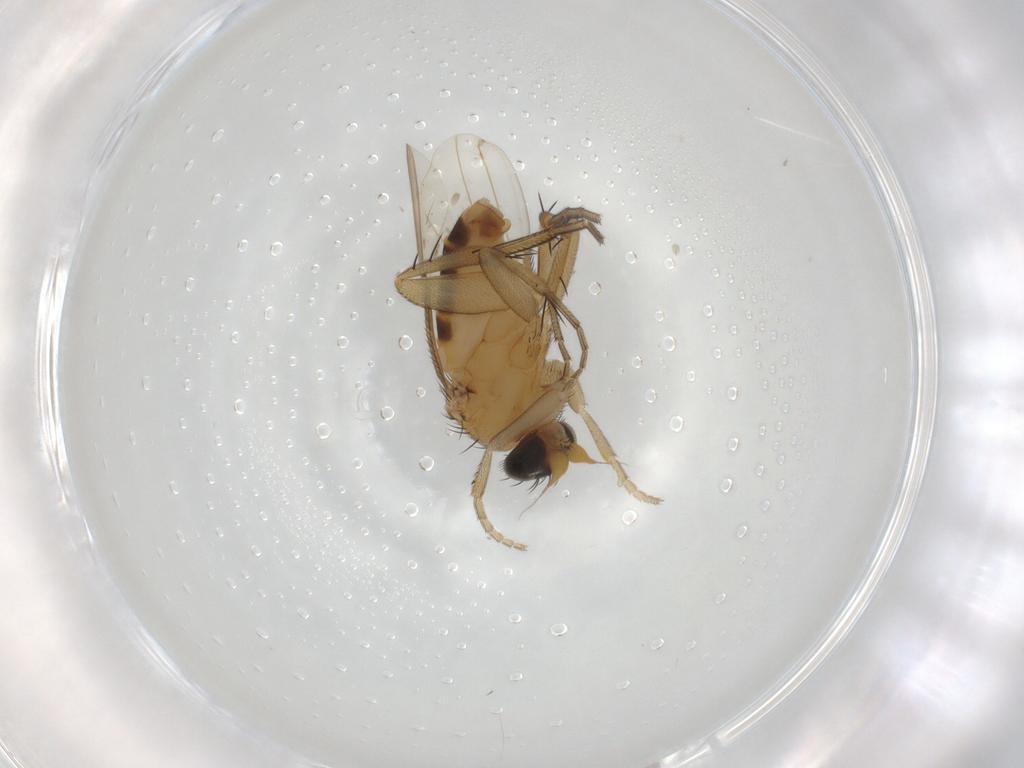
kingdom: Animalia
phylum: Arthropoda
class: Insecta
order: Diptera
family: Phoridae
